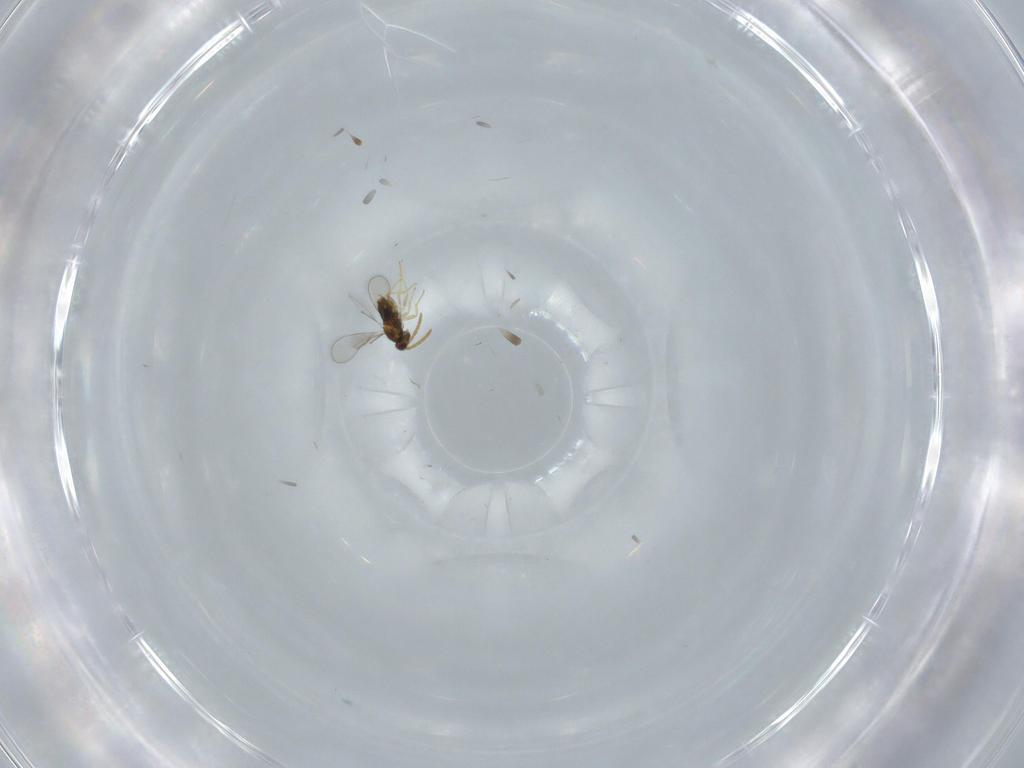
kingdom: Animalia
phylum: Arthropoda
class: Insecta
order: Hymenoptera
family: Aphelinidae
